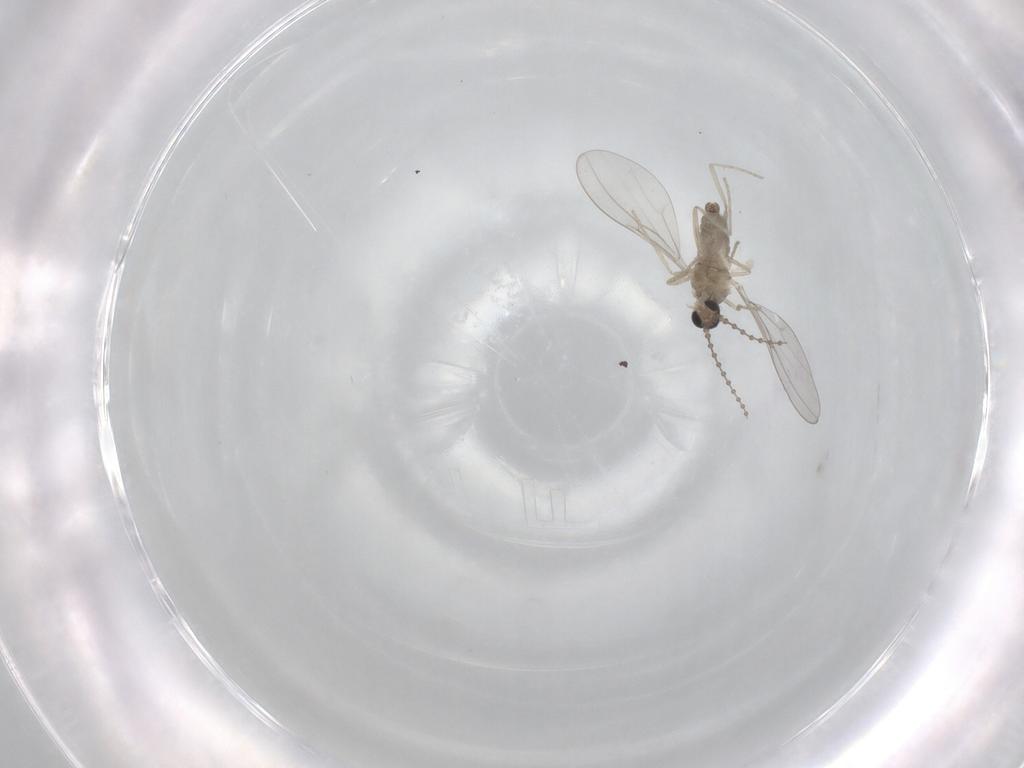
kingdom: Animalia
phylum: Arthropoda
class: Insecta
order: Diptera
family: Cecidomyiidae
